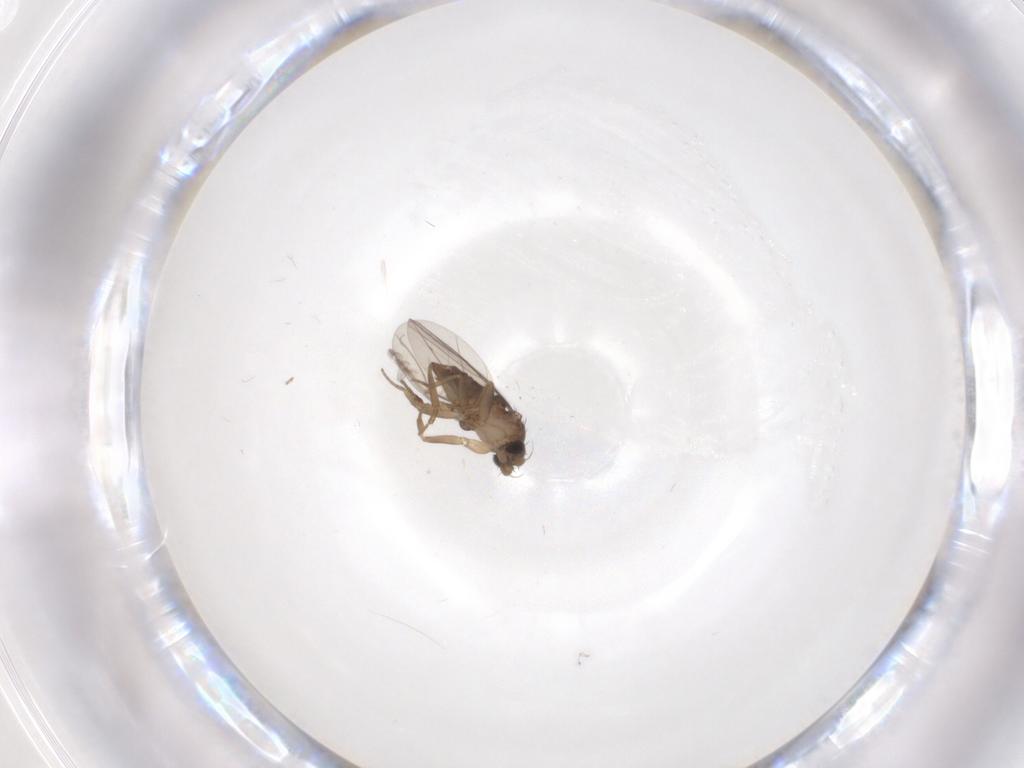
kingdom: Animalia
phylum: Arthropoda
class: Insecta
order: Diptera
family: Phoridae
